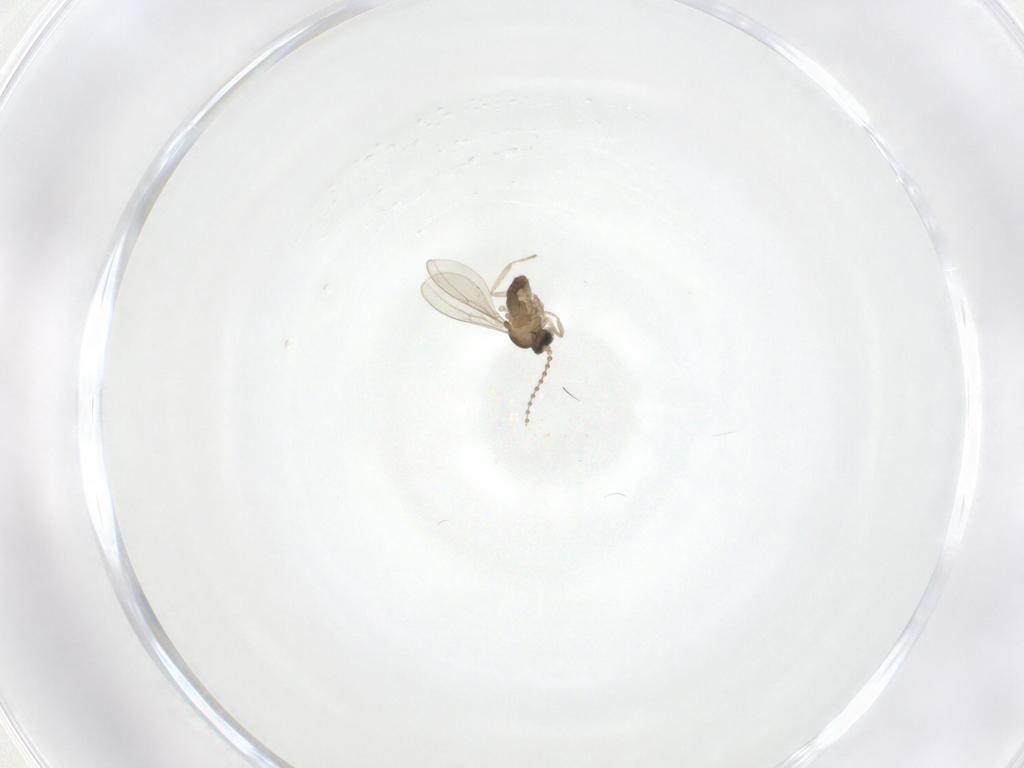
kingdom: Animalia
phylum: Arthropoda
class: Insecta
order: Diptera
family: Cecidomyiidae
